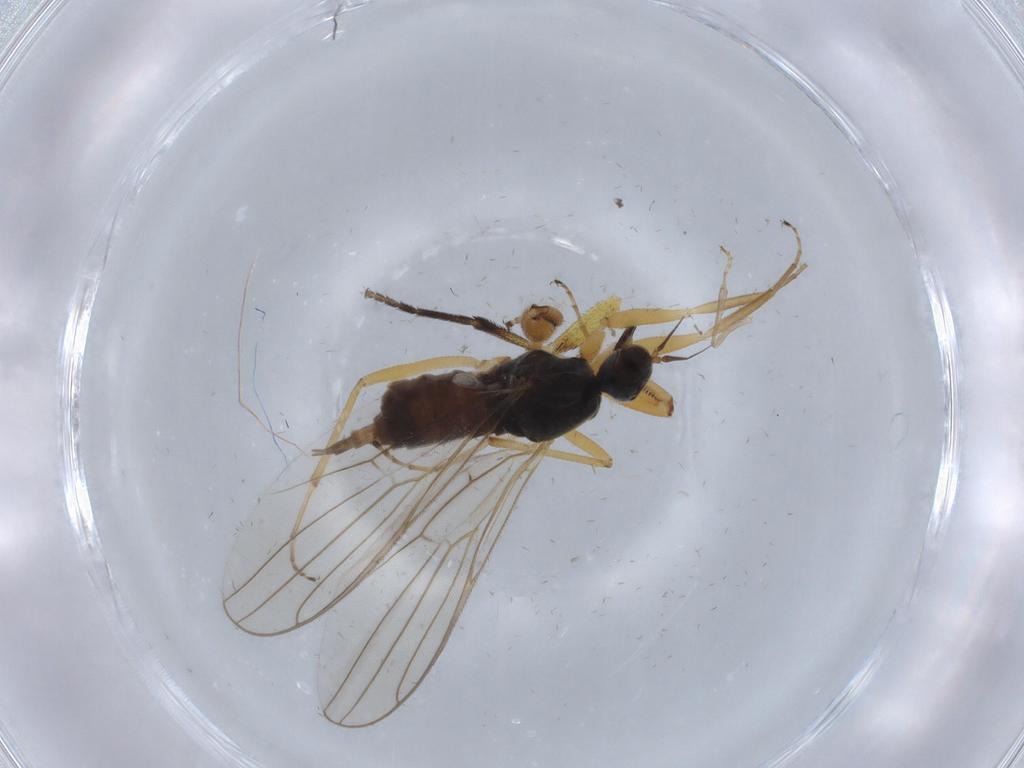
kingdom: Animalia
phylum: Arthropoda
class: Insecta
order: Diptera
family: Hybotidae
